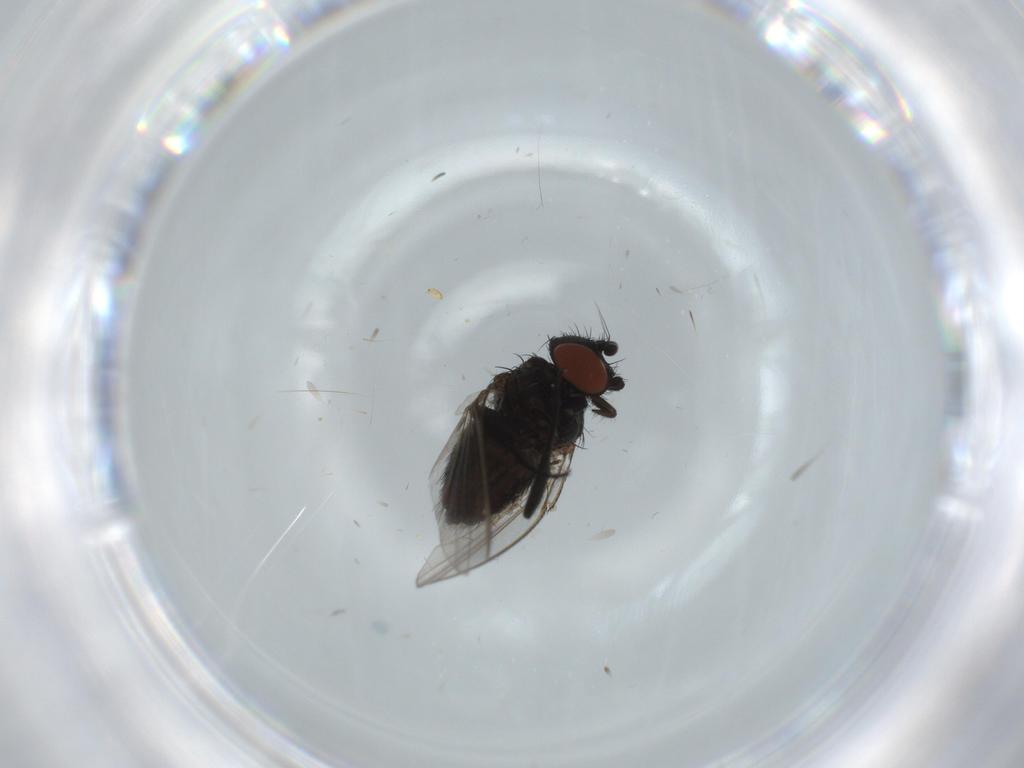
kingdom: Animalia
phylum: Arthropoda
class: Insecta
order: Diptera
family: Milichiidae
